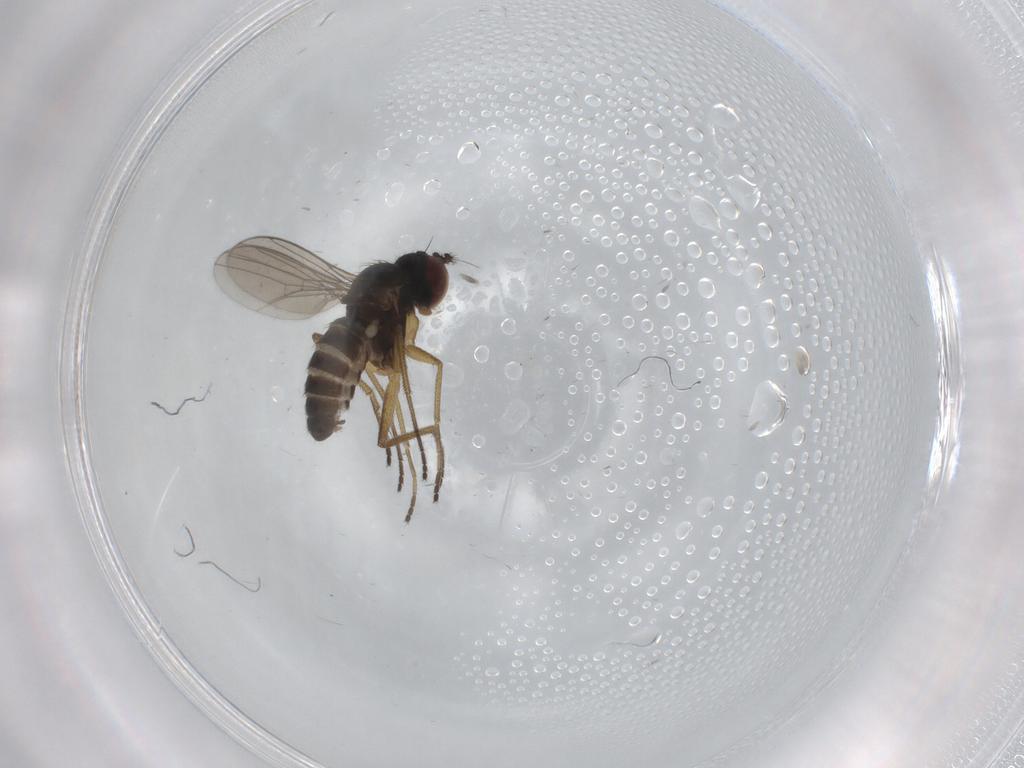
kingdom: Animalia
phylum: Arthropoda
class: Insecta
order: Diptera
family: Dolichopodidae
